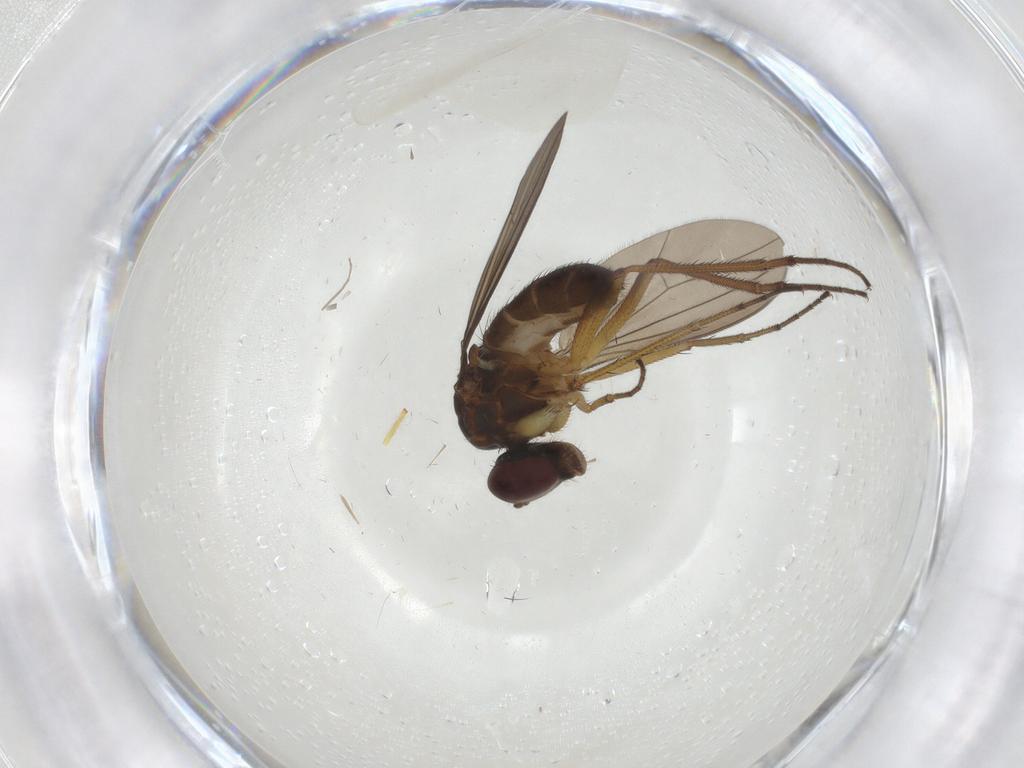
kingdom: Animalia
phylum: Arthropoda
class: Insecta
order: Diptera
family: Dolichopodidae
